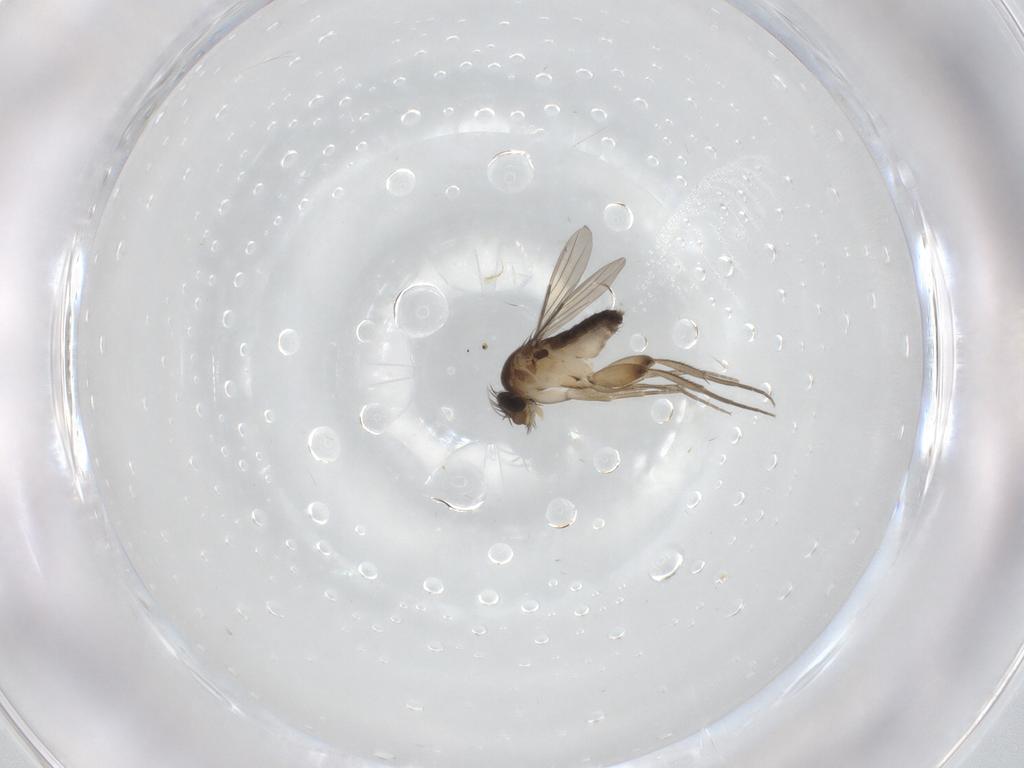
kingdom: Animalia
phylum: Arthropoda
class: Insecta
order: Diptera
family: Phoridae
